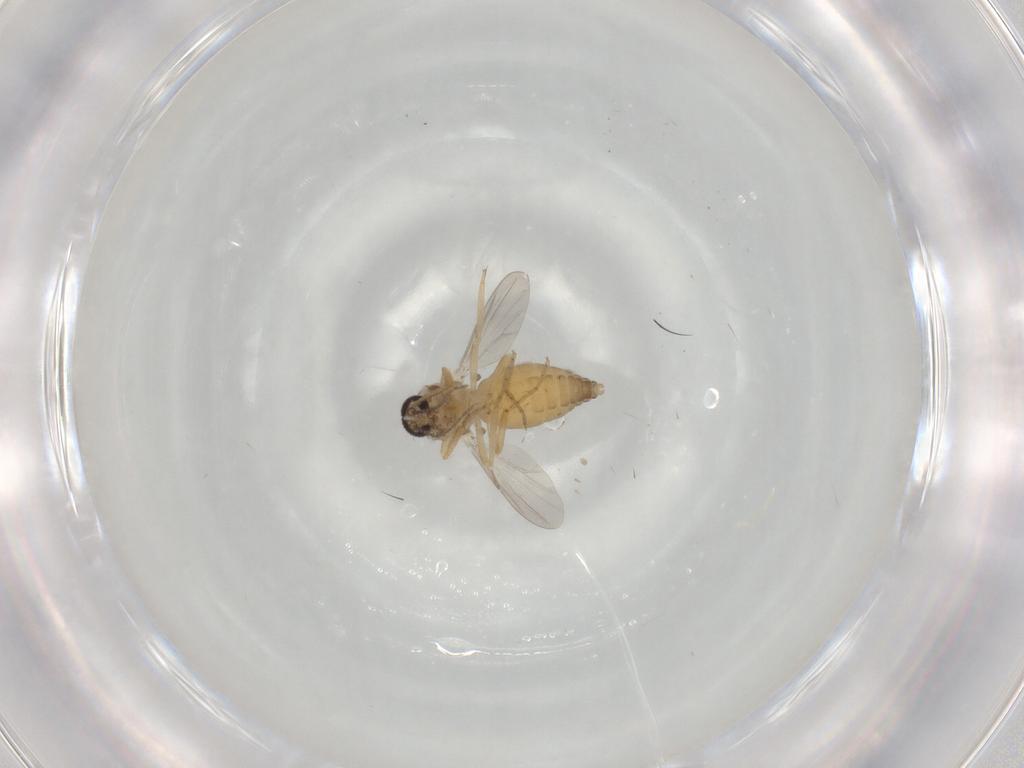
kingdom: Animalia
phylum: Arthropoda
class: Insecta
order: Diptera
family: Ceratopogonidae
